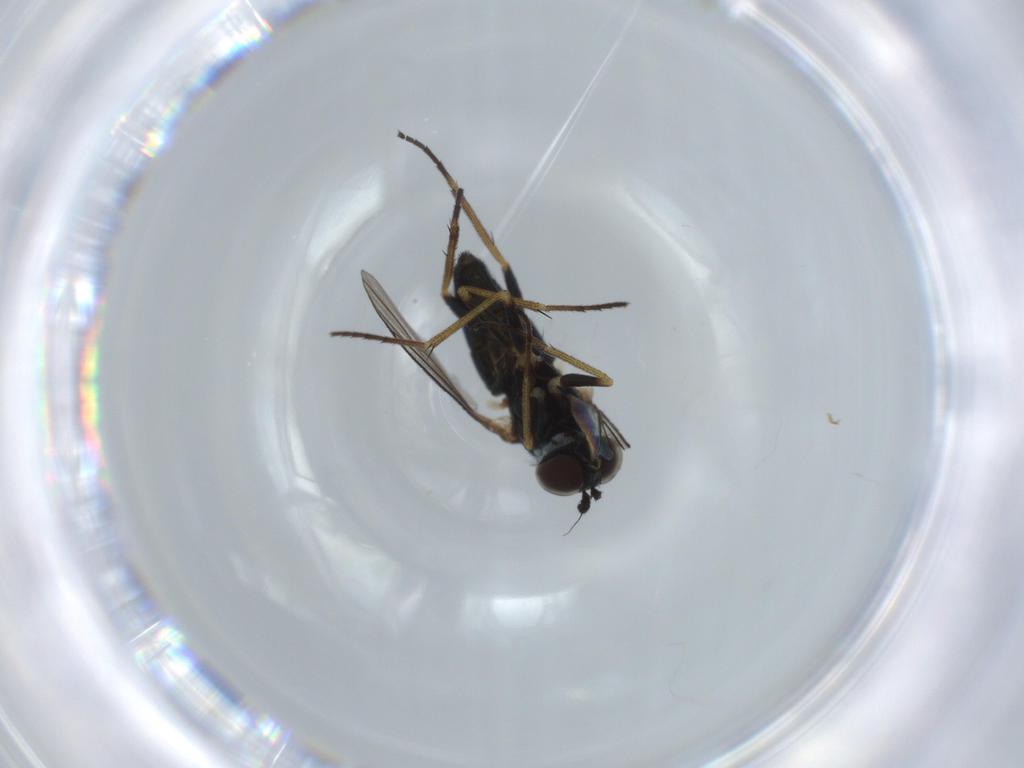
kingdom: Animalia
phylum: Arthropoda
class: Insecta
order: Diptera
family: Dolichopodidae
